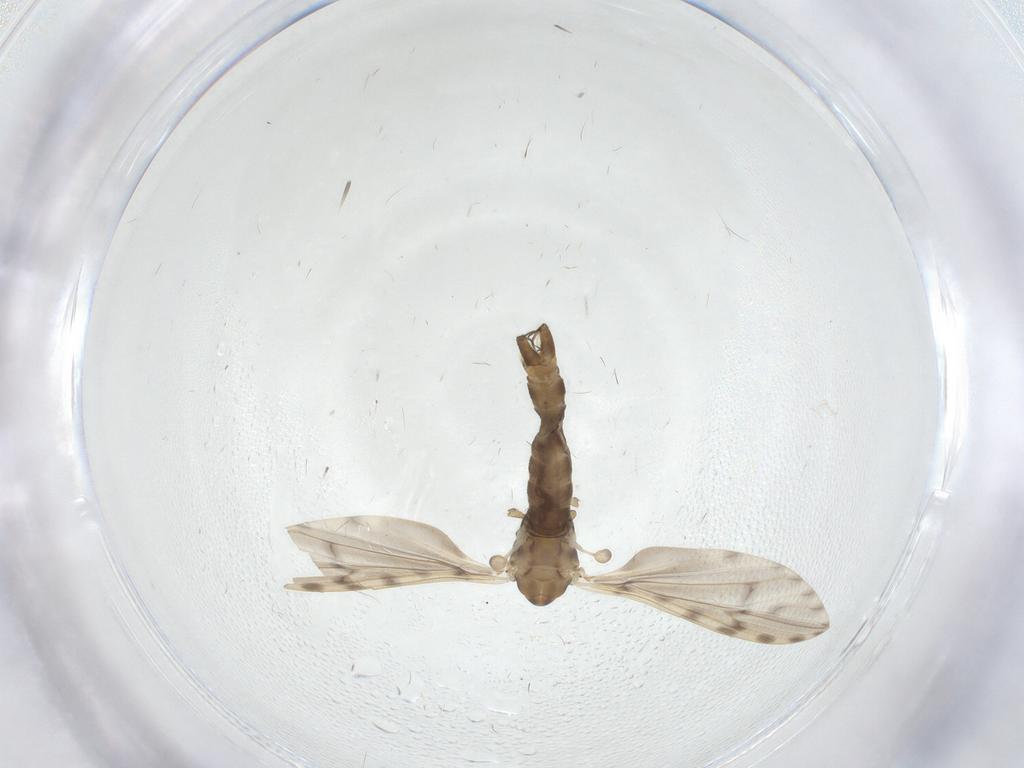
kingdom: Animalia
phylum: Arthropoda
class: Insecta
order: Diptera
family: Limoniidae
